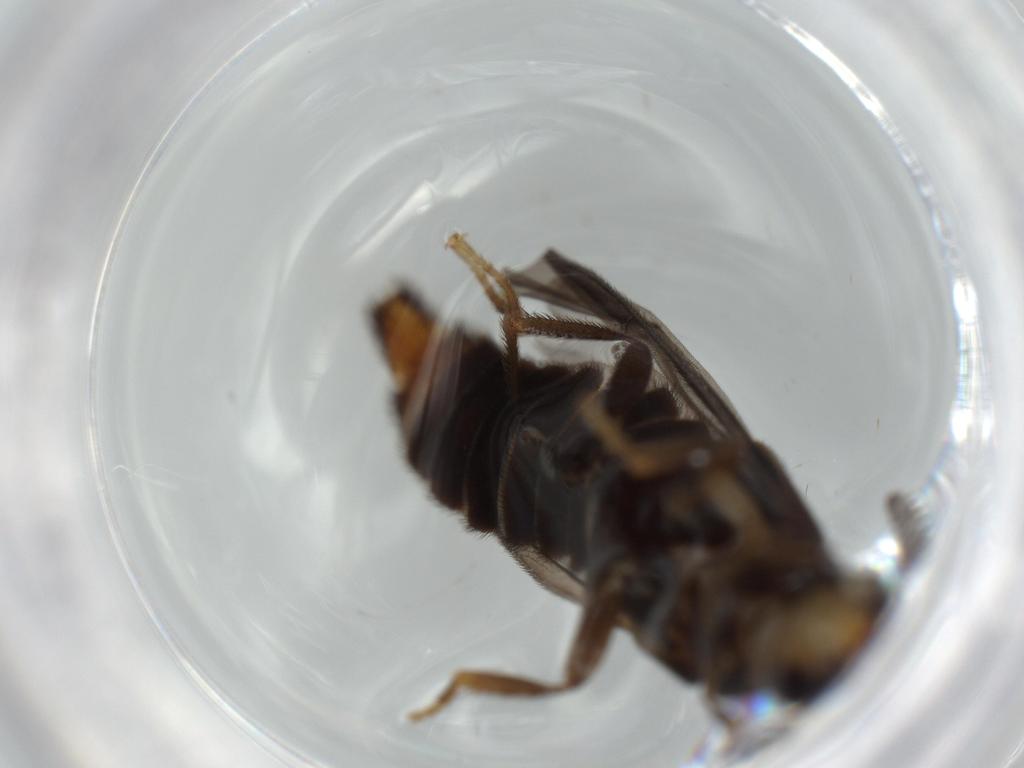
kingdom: Animalia
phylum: Arthropoda
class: Insecta
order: Coleoptera
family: Phengodidae
